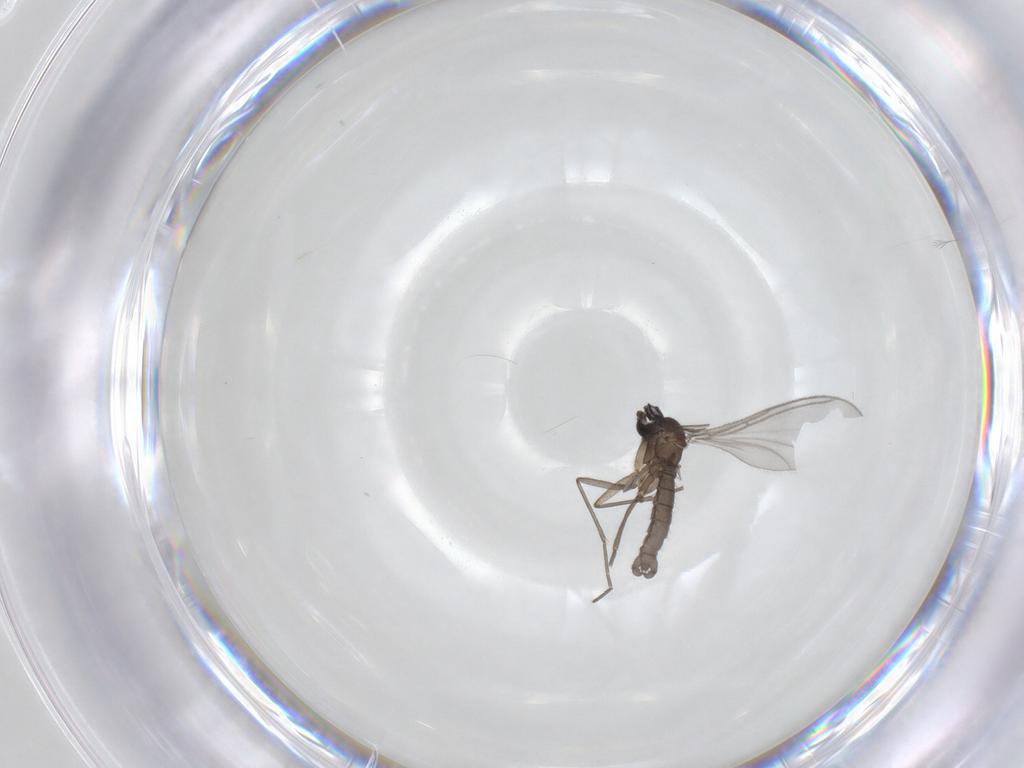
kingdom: Animalia
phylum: Arthropoda
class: Insecta
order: Diptera
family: Sciaridae
